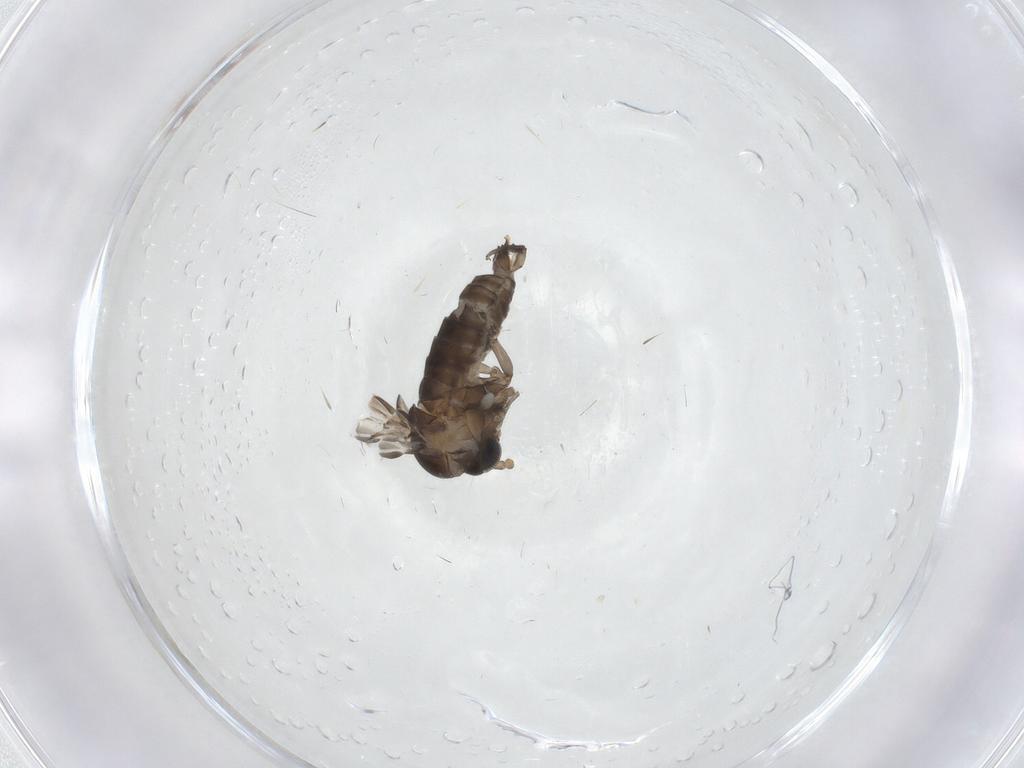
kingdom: Animalia
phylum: Arthropoda
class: Insecta
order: Diptera
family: Psychodidae
